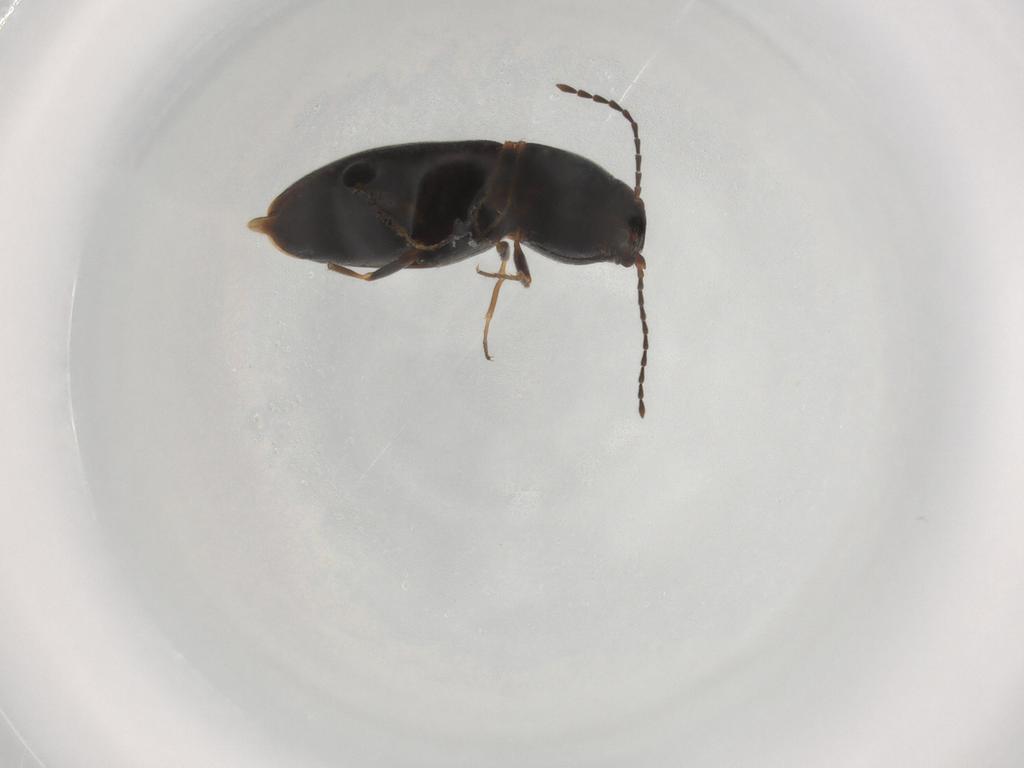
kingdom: Animalia
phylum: Arthropoda
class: Insecta
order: Coleoptera
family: Elateridae
